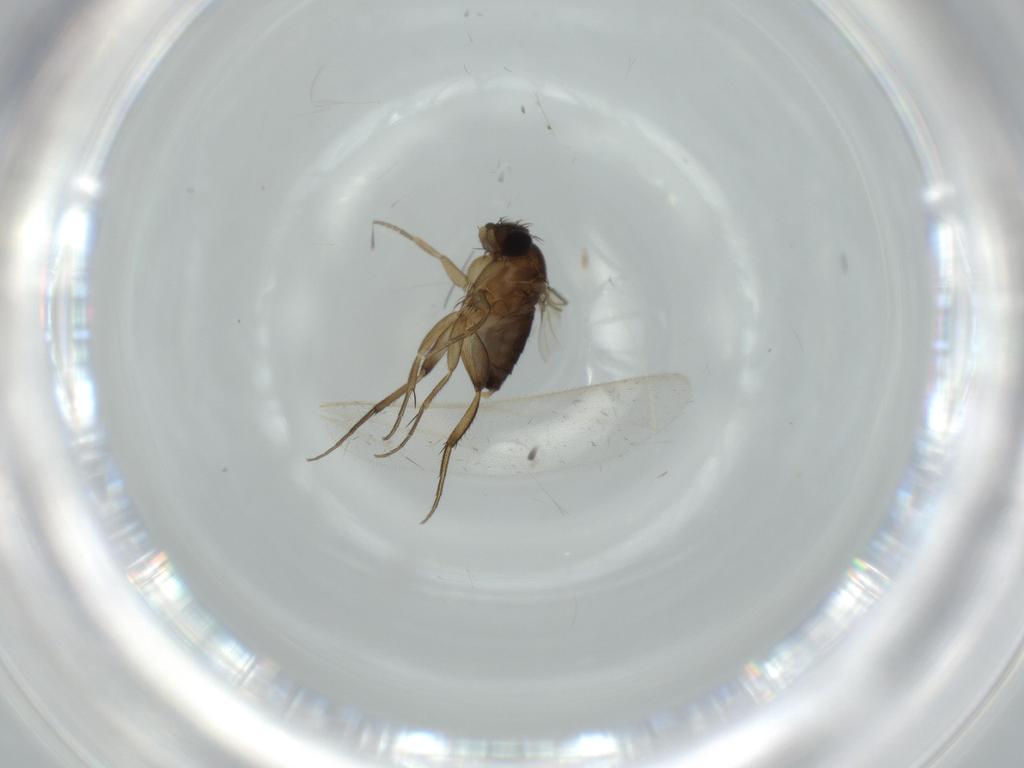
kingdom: Animalia
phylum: Arthropoda
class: Insecta
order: Diptera
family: Phoridae
